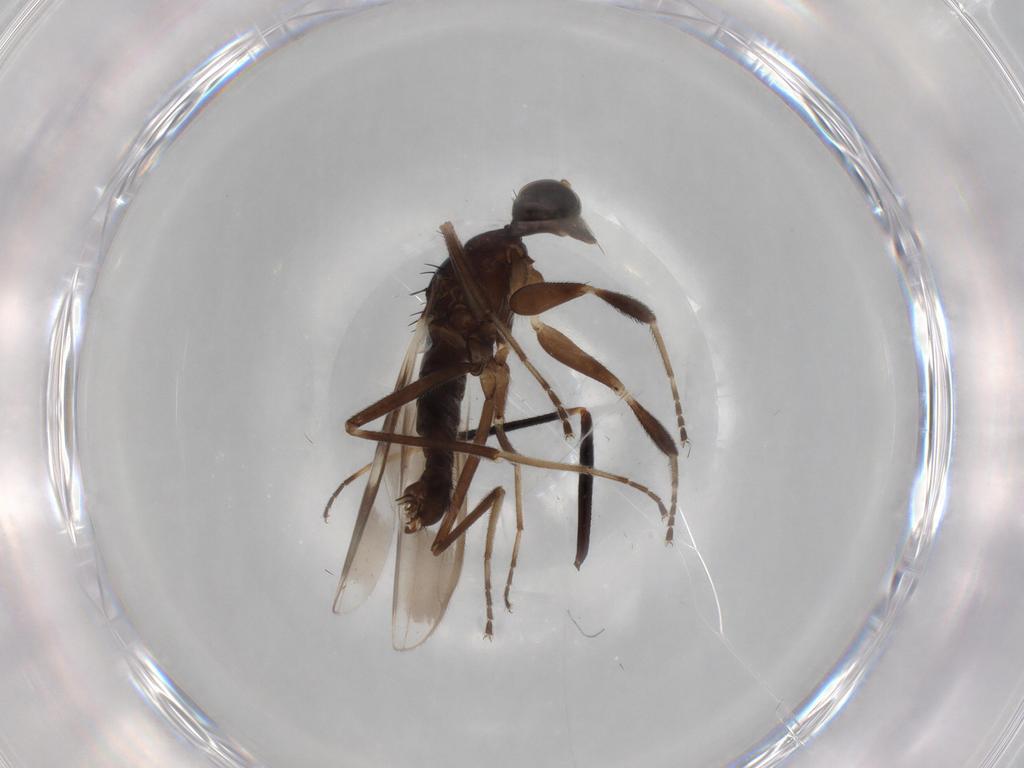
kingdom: Animalia
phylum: Arthropoda
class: Insecta
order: Diptera
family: Hybotidae
